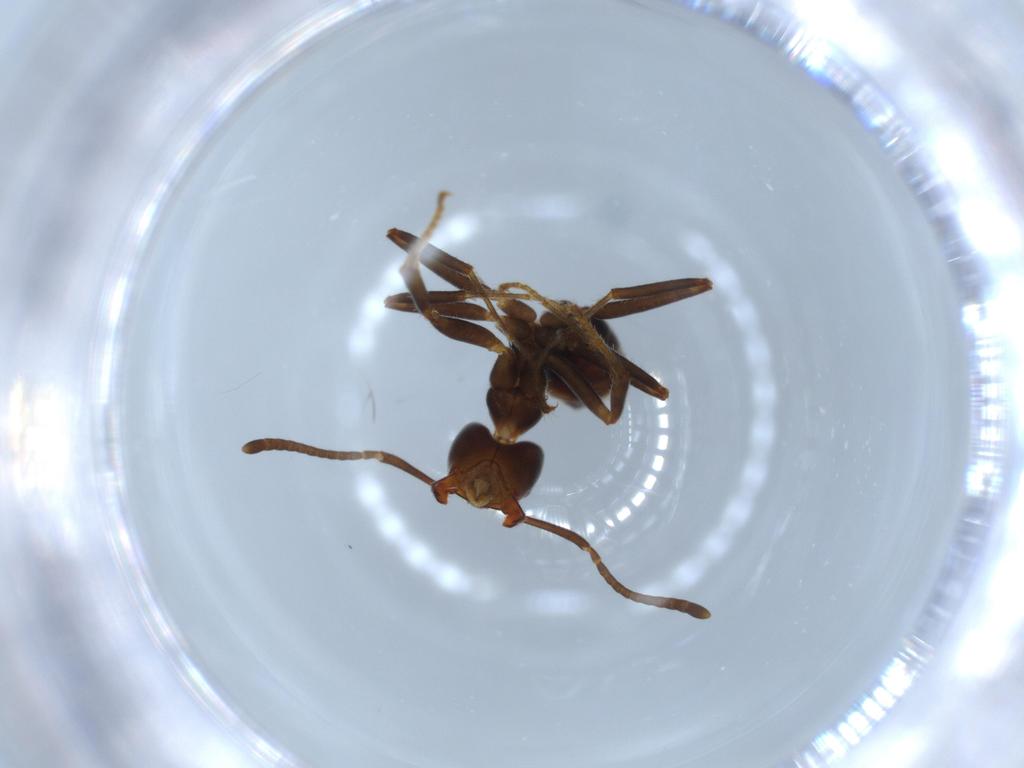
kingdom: Animalia
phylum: Arthropoda
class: Insecta
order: Hymenoptera
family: Formicidae
